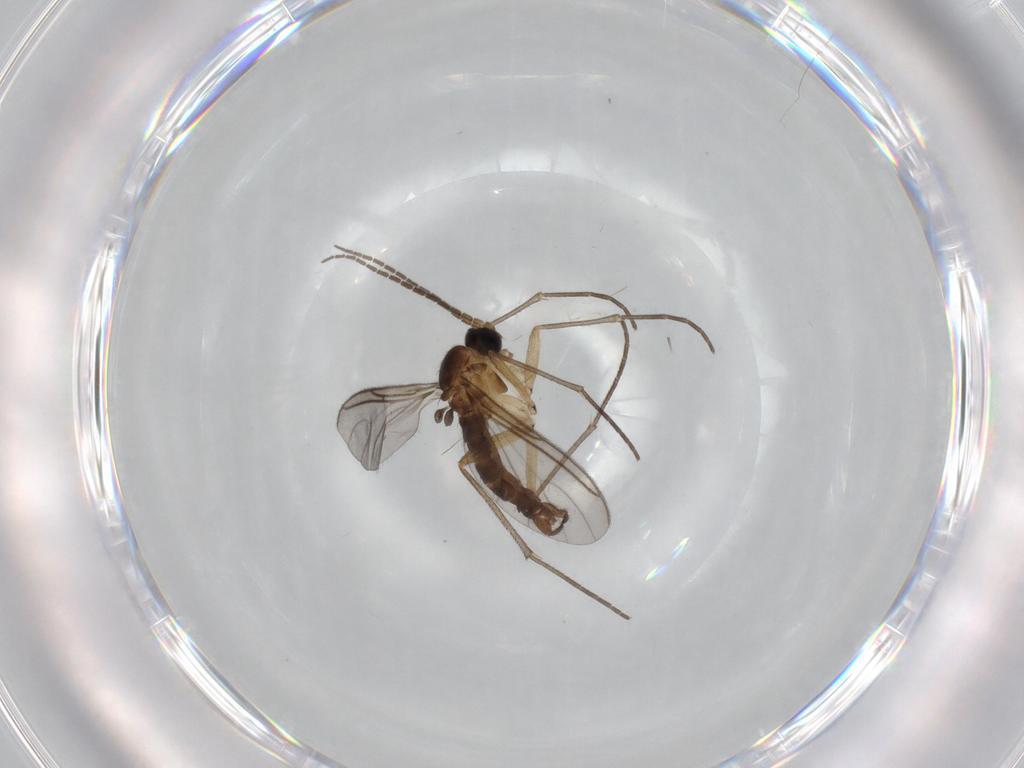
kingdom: Animalia
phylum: Arthropoda
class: Insecta
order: Diptera
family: Sciaridae
